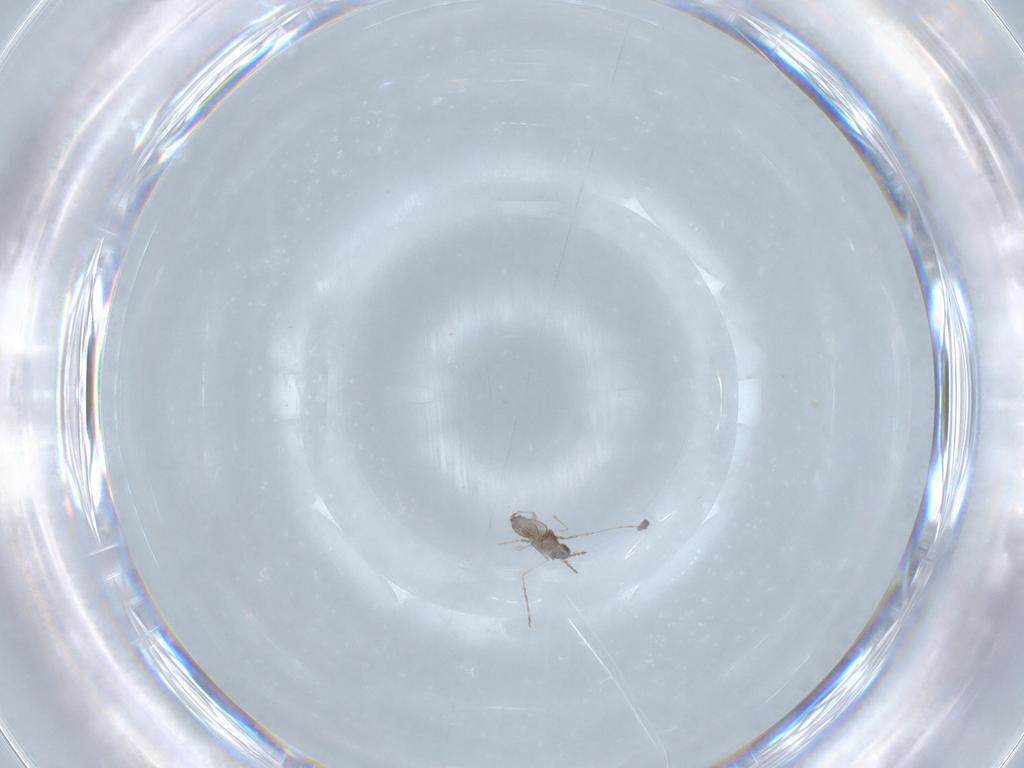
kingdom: Animalia
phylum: Arthropoda
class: Insecta
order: Diptera
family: Cecidomyiidae
